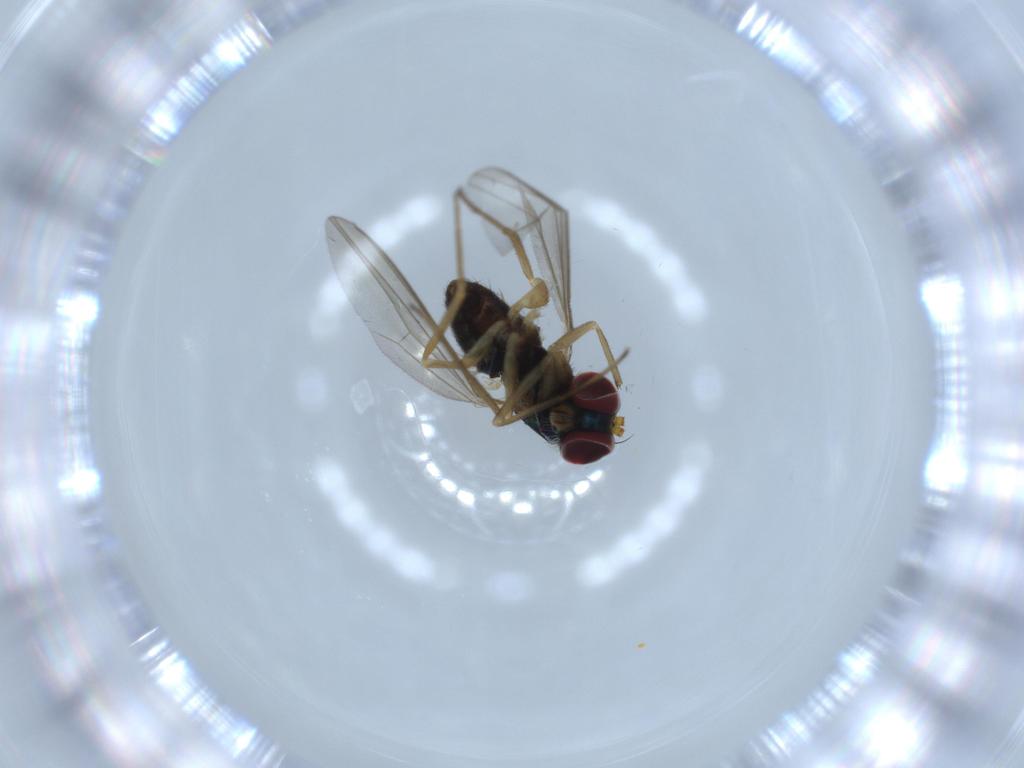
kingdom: Animalia
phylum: Arthropoda
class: Insecta
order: Diptera
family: Dolichopodidae
